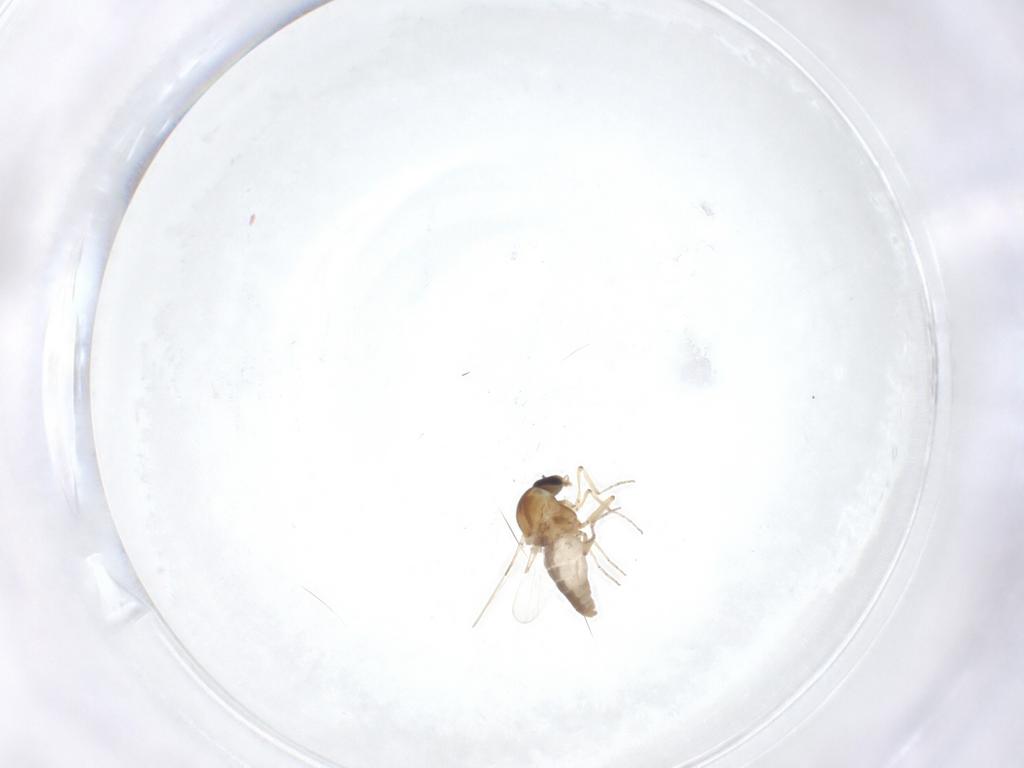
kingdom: Animalia
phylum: Arthropoda
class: Insecta
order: Diptera
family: Ceratopogonidae
